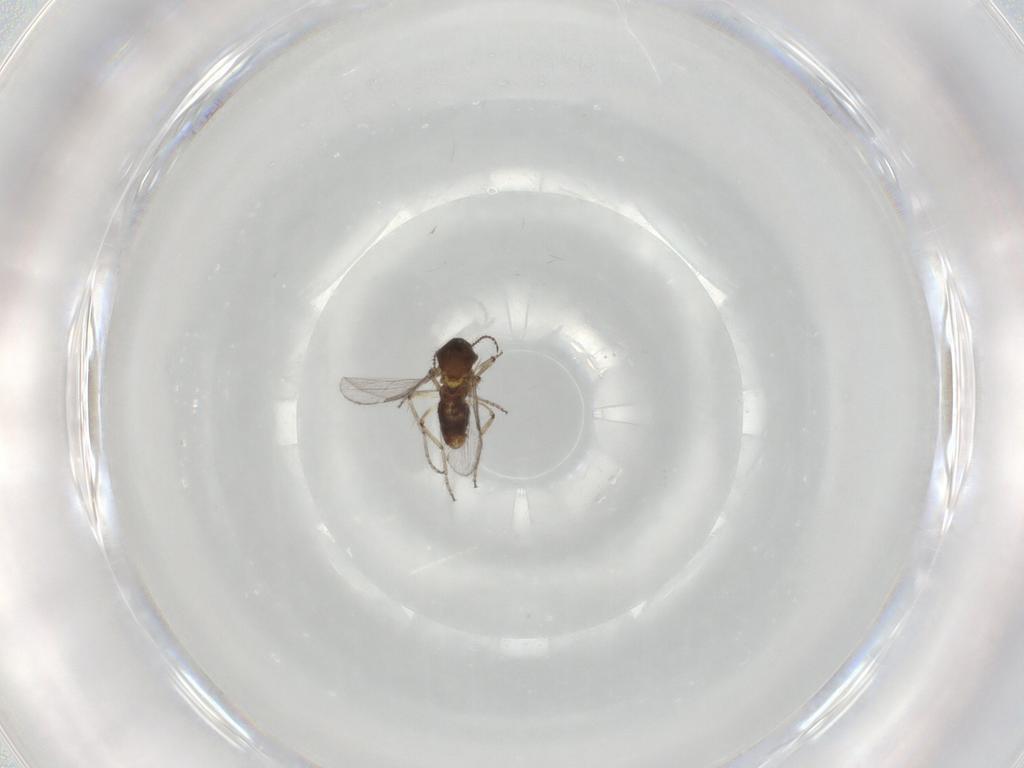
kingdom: Animalia
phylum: Arthropoda
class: Insecta
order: Diptera
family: Ceratopogonidae
